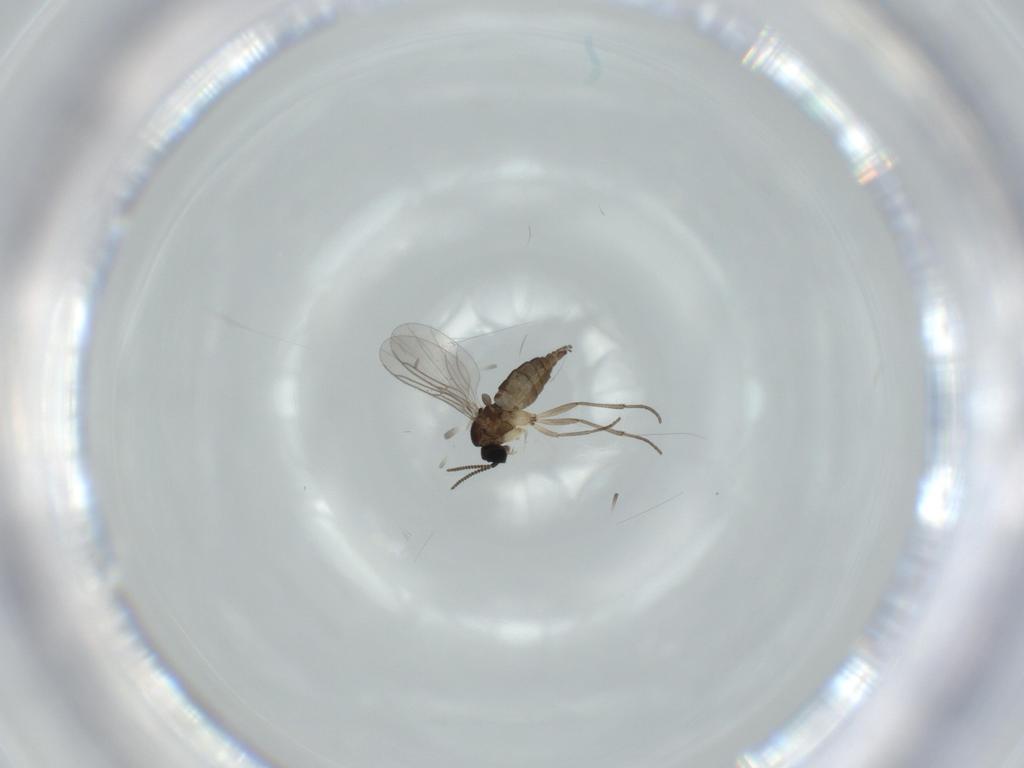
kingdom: Animalia
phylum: Arthropoda
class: Insecta
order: Diptera
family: Sciaridae
